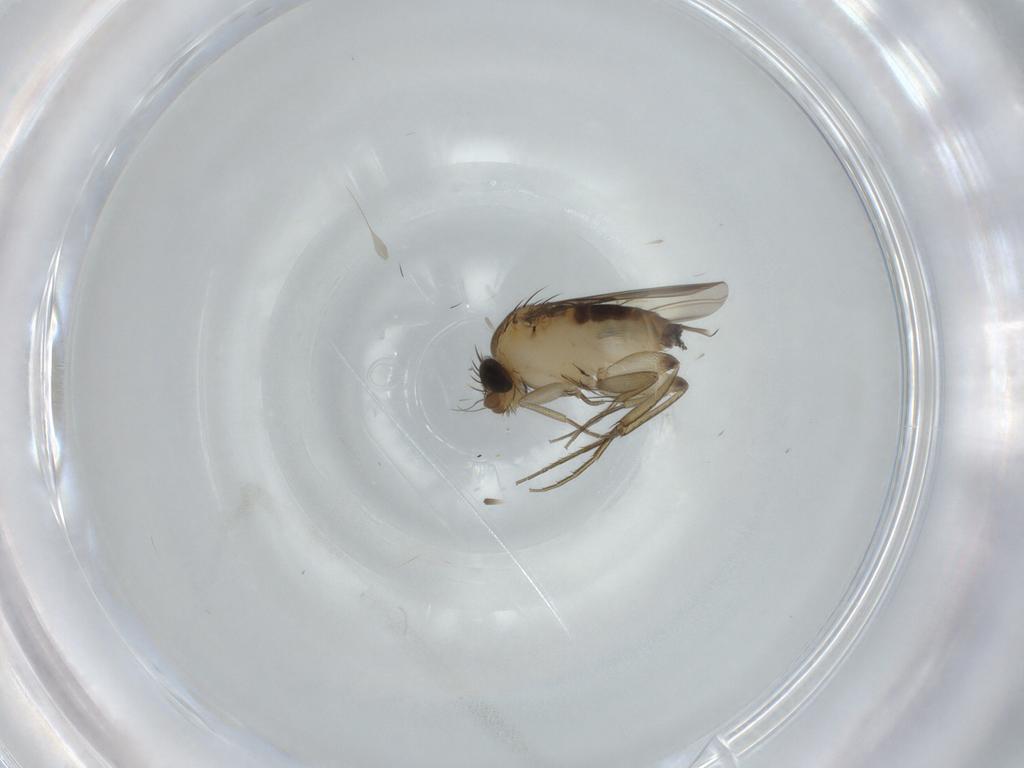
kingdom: Animalia
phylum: Arthropoda
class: Insecta
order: Diptera
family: Phoridae
